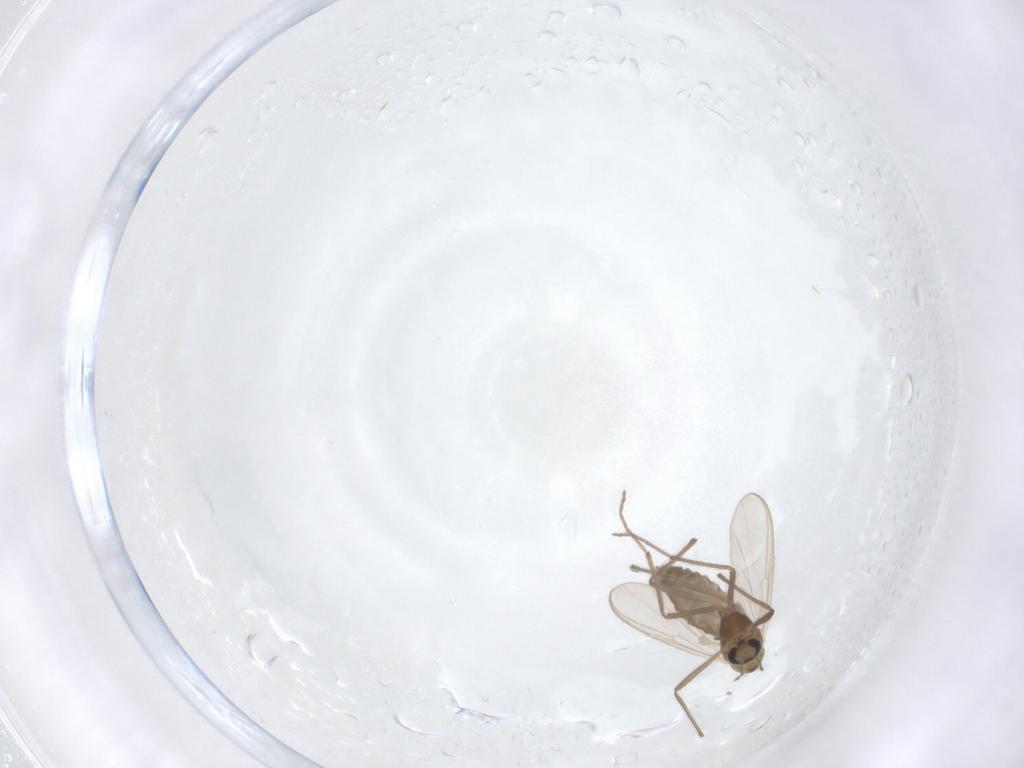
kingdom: Animalia
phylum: Arthropoda
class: Insecta
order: Diptera
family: Chironomidae
